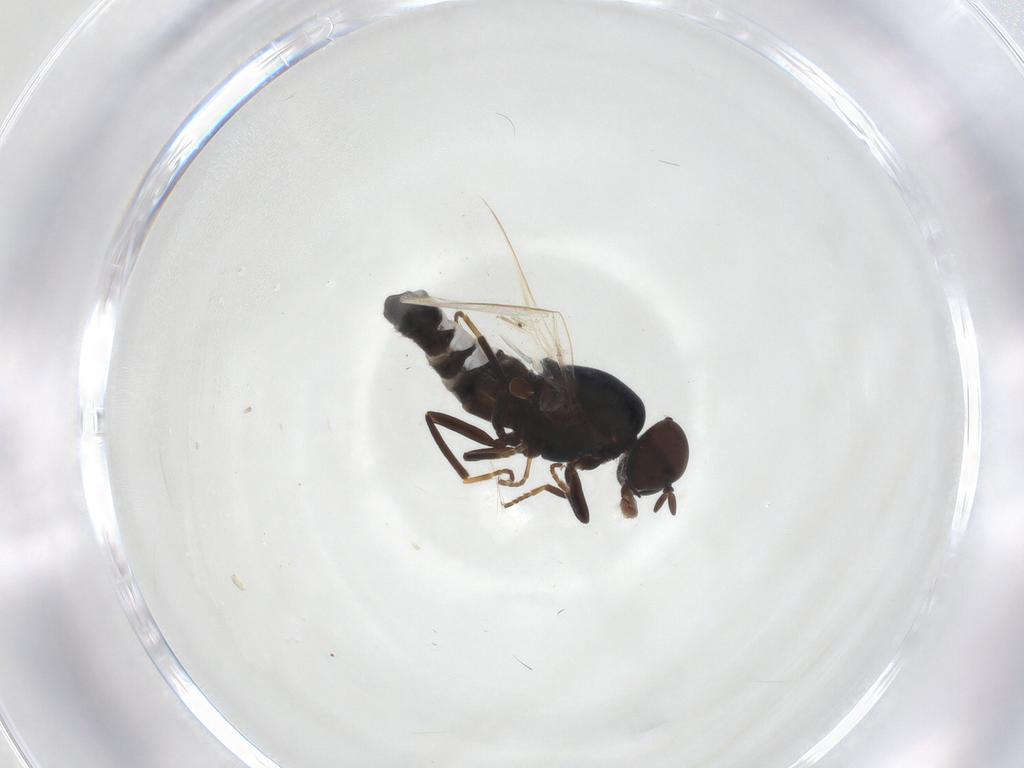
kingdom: Animalia
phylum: Arthropoda
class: Insecta
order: Diptera
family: Scenopinidae
